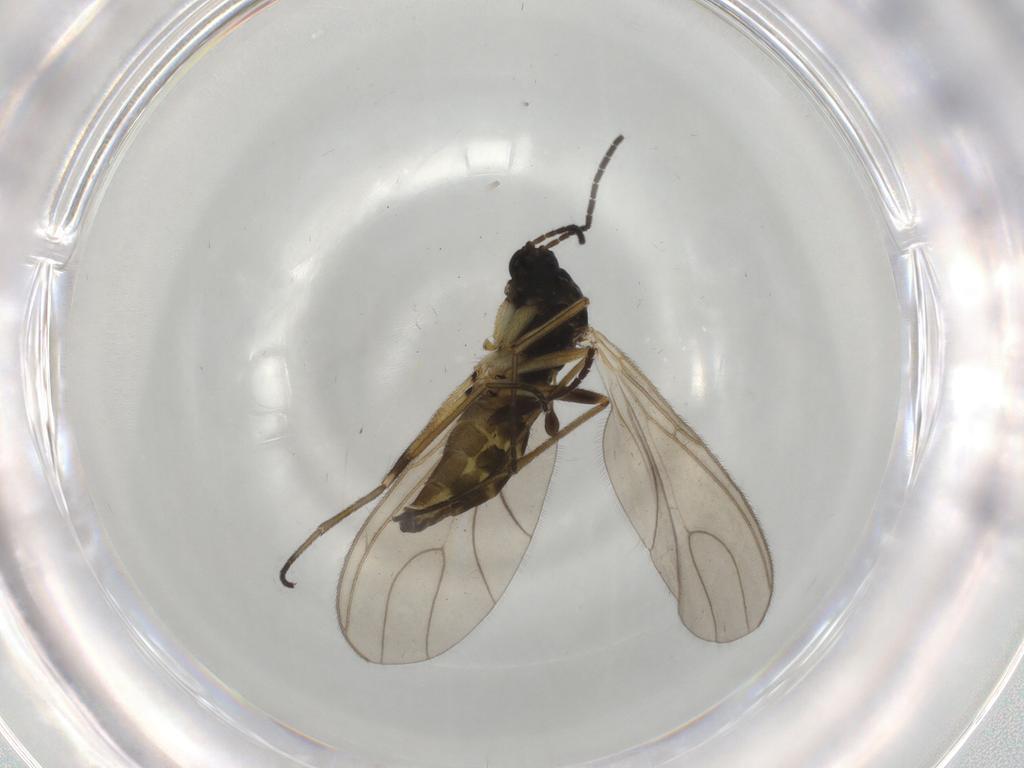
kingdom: Animalia
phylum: Arthropoda
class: Insecta
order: Diptera
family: Sciaridae
